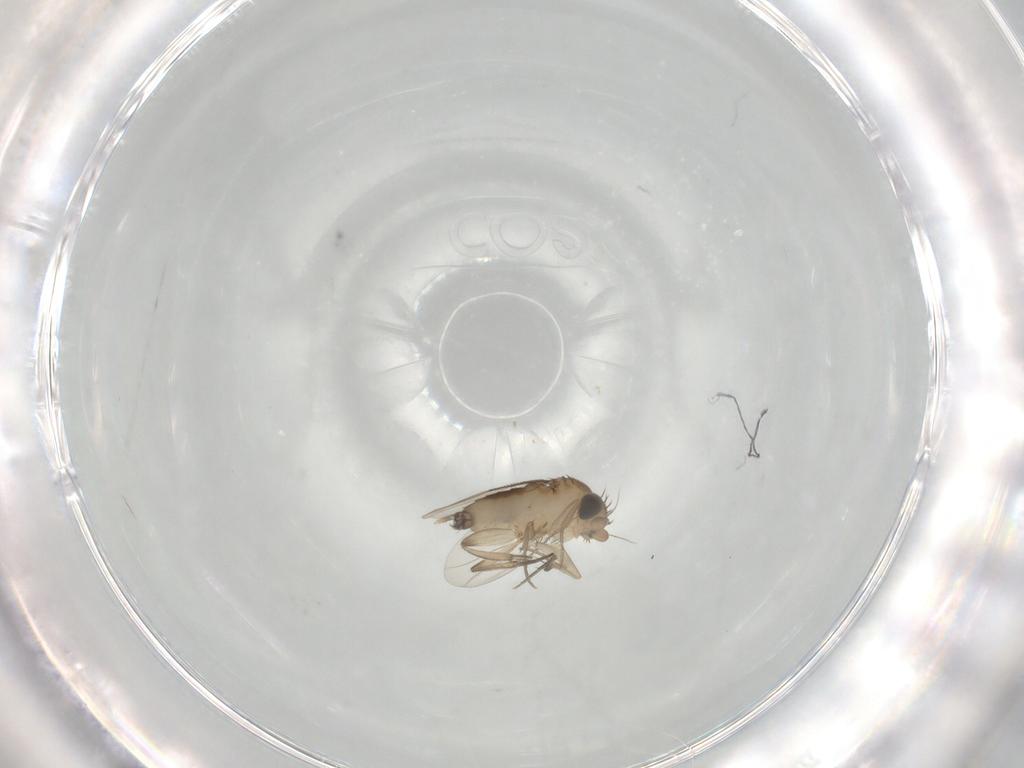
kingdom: Animalia
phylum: Arthropoda
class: Insecta
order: Diptera
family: Phoridae
